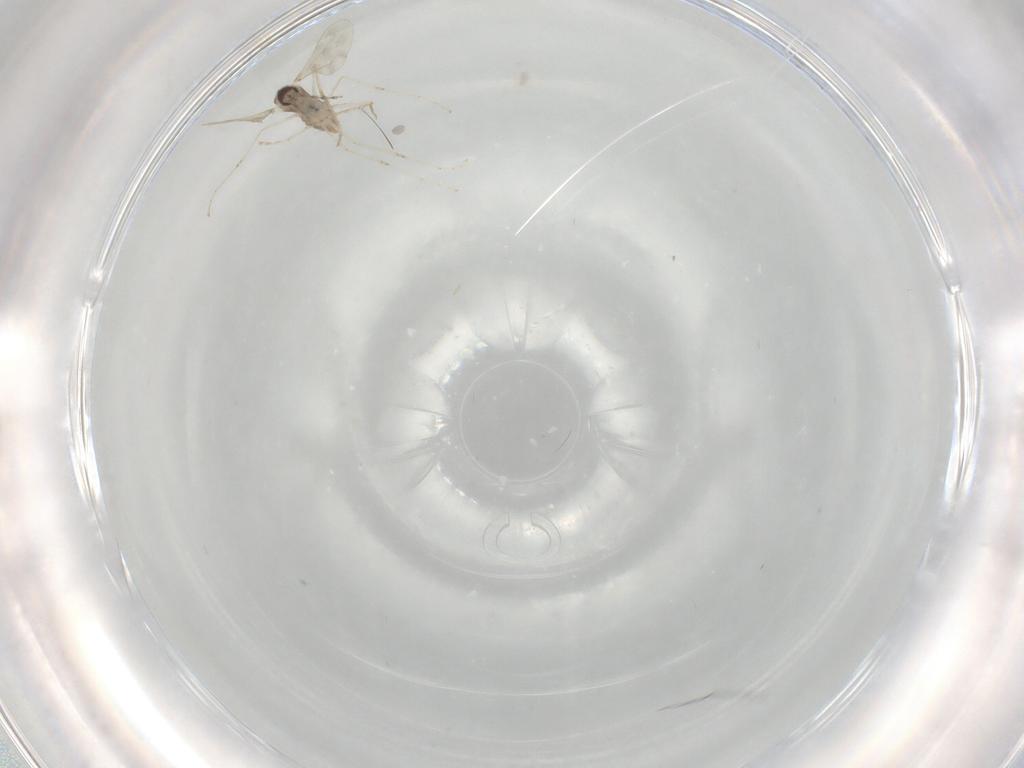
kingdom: Animalia
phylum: Arthropoda
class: Insecta
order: Diptera
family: Cecidomyiidae
